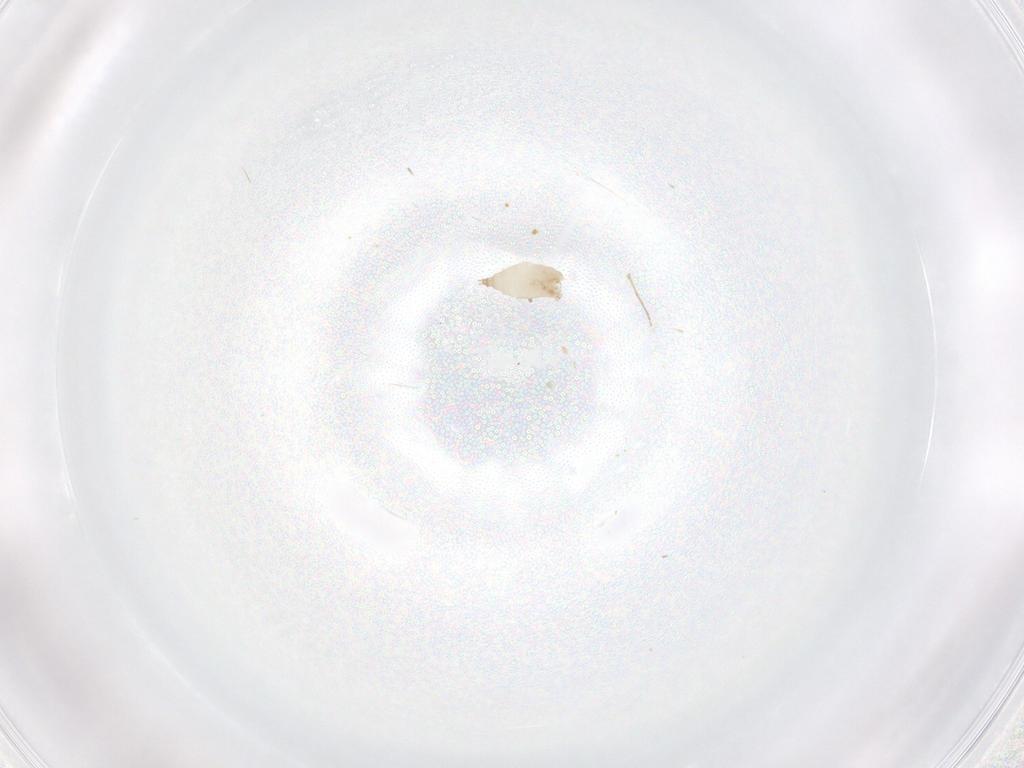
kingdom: Animalia
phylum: Arthropoda
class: Insecta
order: Diptera
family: Cecidomyiidae
